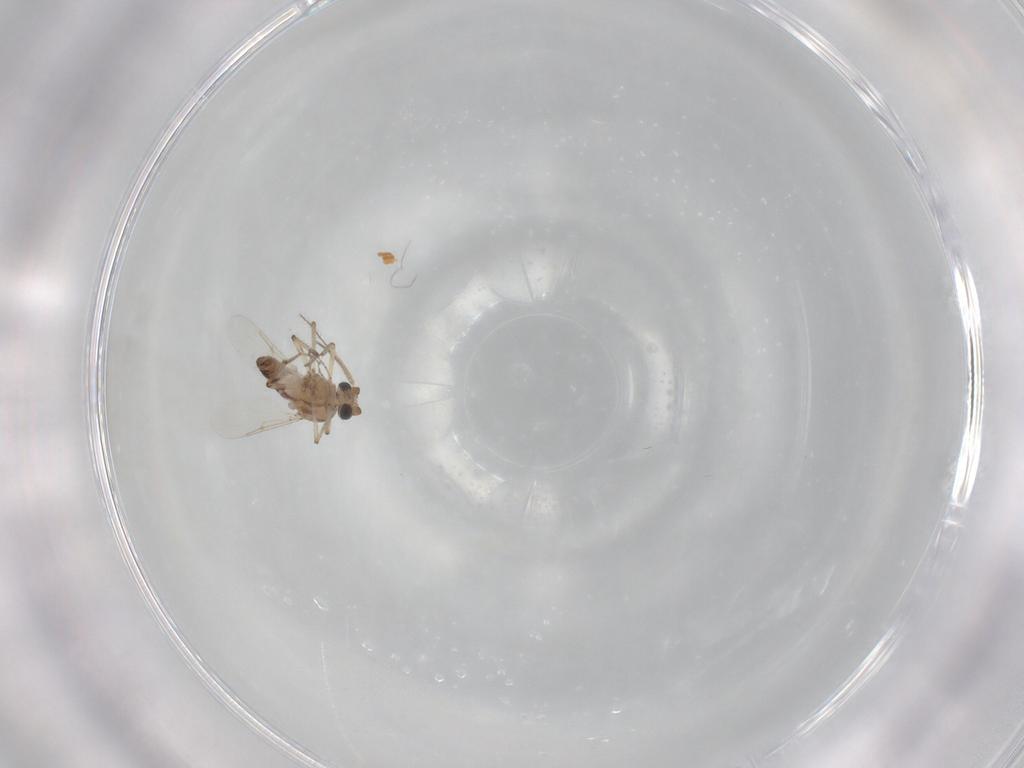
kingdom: Animalia
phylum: Arthropoda
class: Insecta
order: Diptera
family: Ceratopogonidae
